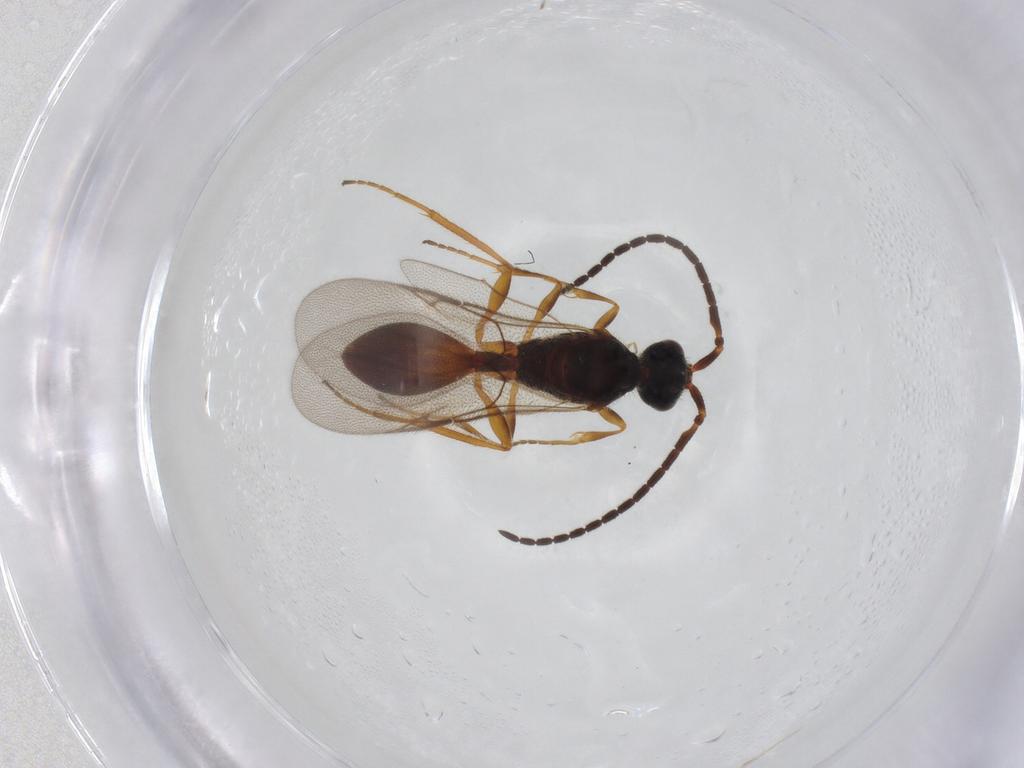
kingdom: Animalia
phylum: Arthropoda
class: Insecta
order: Hymenoptera
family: Diapriidae
